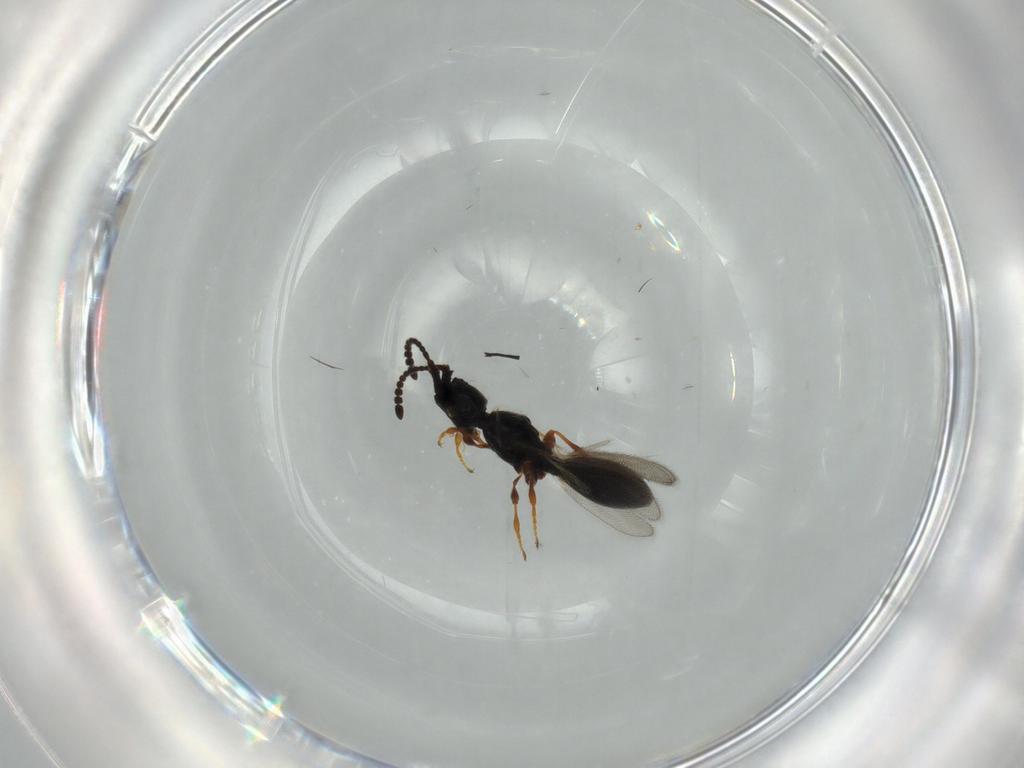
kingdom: Animalia
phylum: Arthropoda
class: Insecta
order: Hymenoptera
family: Diapriidae
